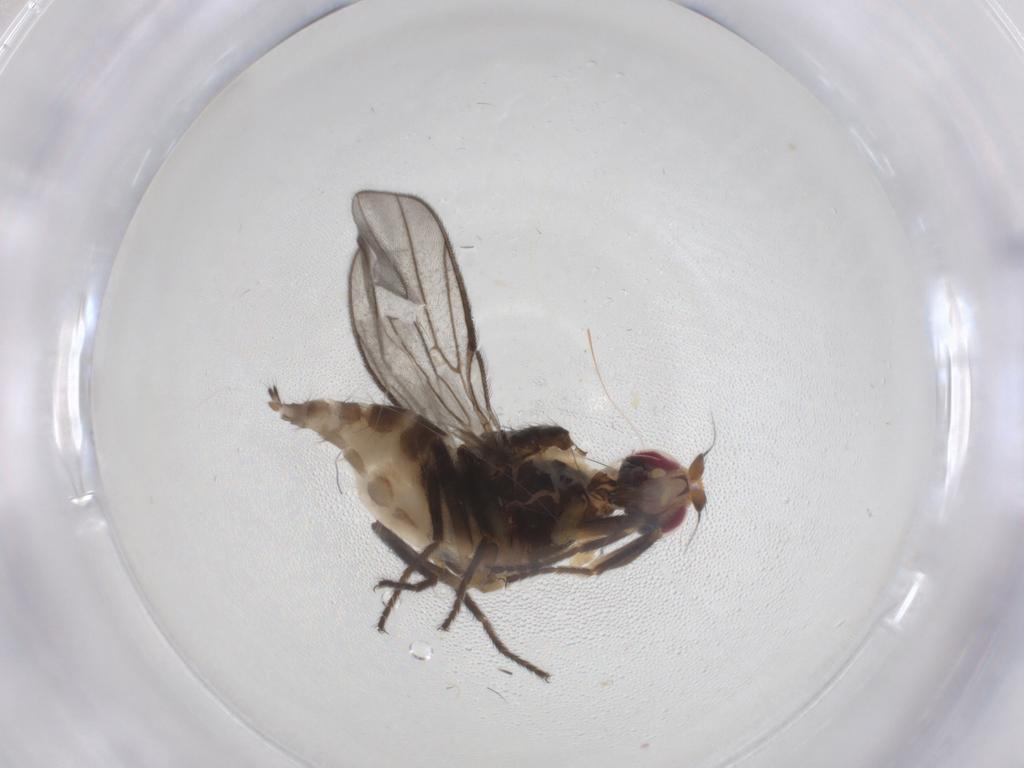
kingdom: Animalia
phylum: Arthropoda
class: Insecta
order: Diptera
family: Chloropidae
